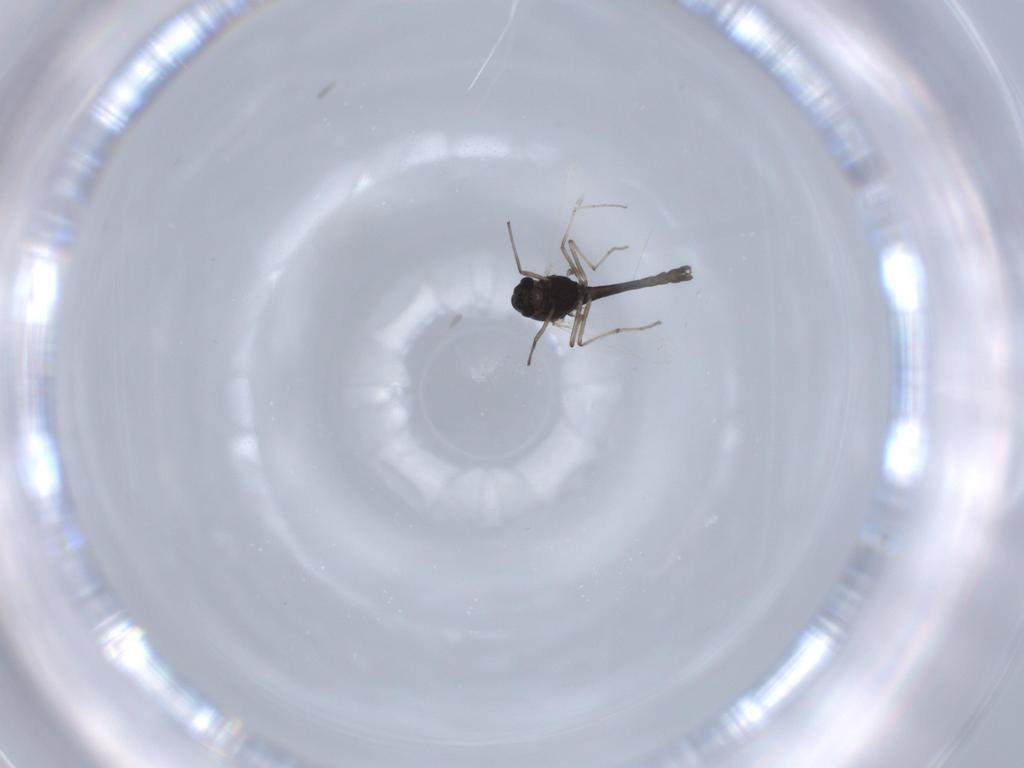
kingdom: Animalia
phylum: Arthropoda
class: Insecta
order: Diptera
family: Chironomidae
